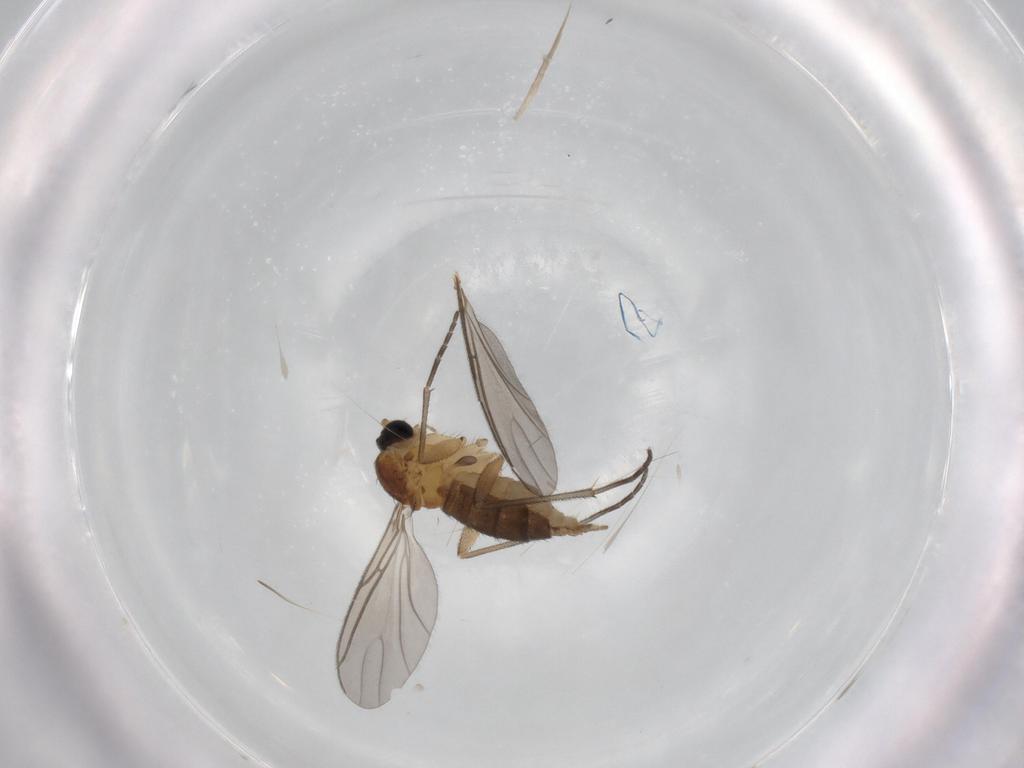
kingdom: Animalia
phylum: Arthropoda
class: Insecta
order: Diptera
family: Sciaridae
